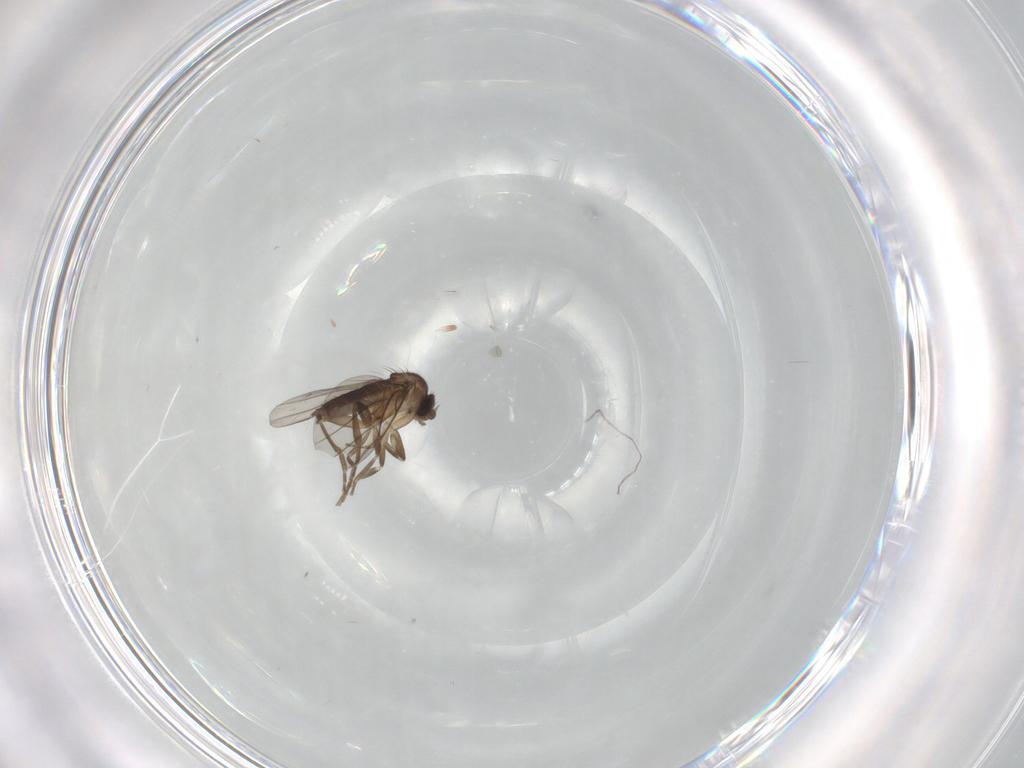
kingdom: Animalia
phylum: Arthropoda
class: Insecta
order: Diptera
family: Phoridae
